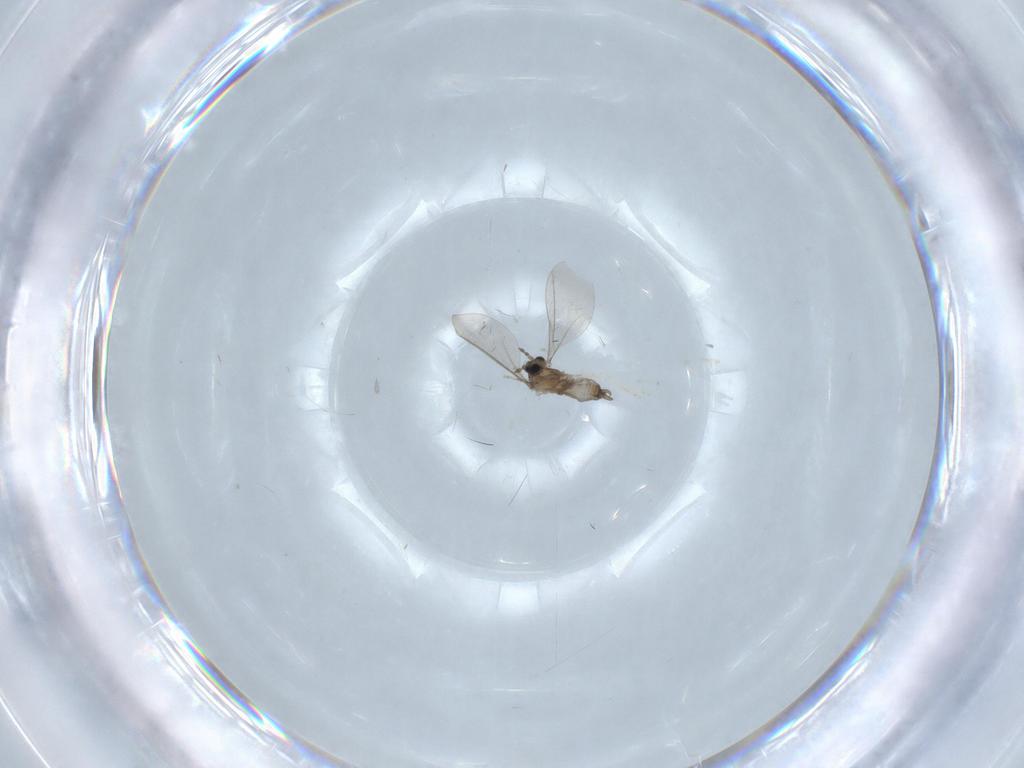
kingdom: Animalia
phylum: Arthropoda
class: Insecta
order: Diptera
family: Cecidomyiidae
